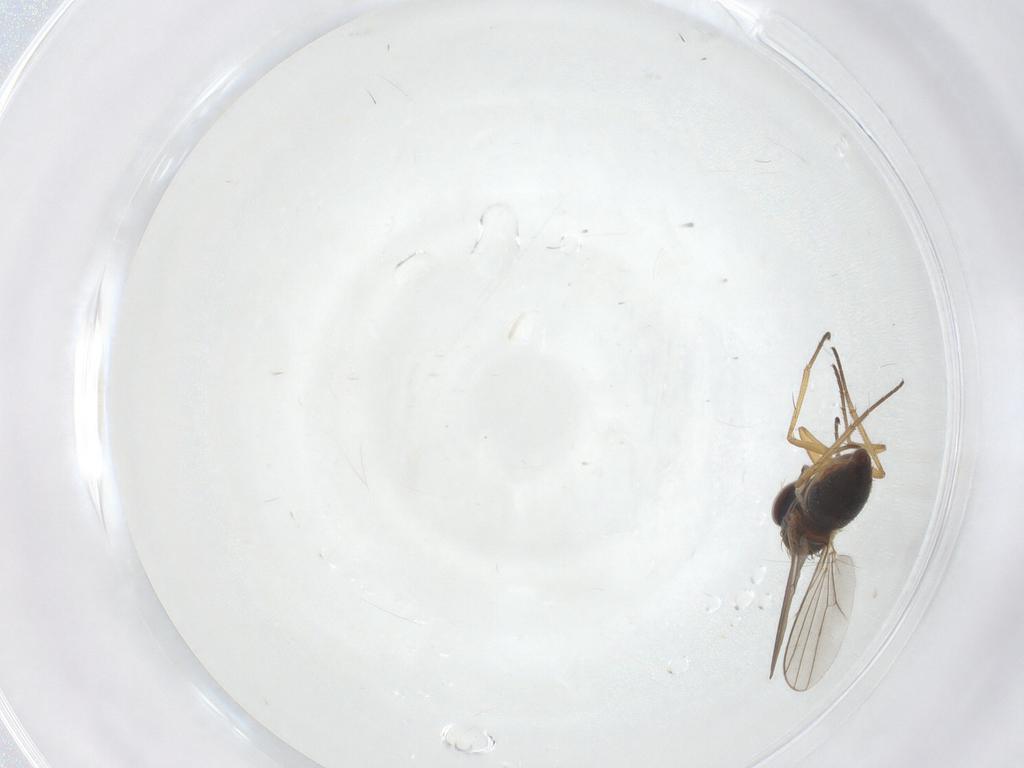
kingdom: Animalia
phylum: Arthropoda
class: Insecta
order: Diptera
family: Dolichopodidae
